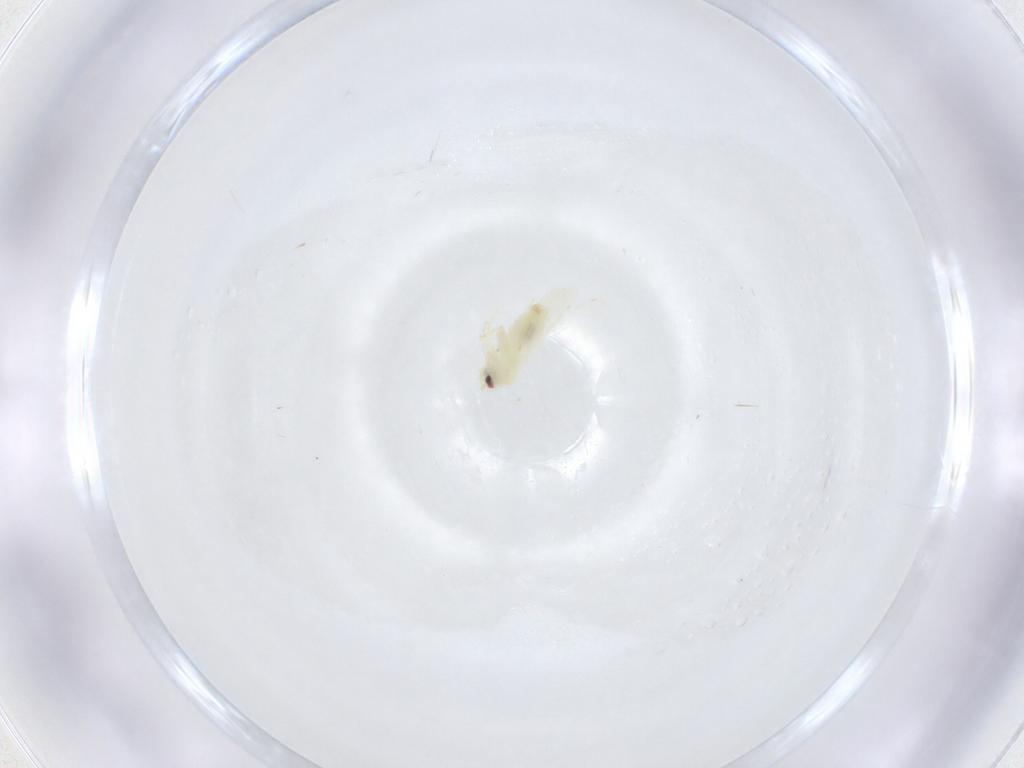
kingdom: Animalia
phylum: Arthropoda
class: Insecta
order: Hemiptera
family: Aleyrodidae
